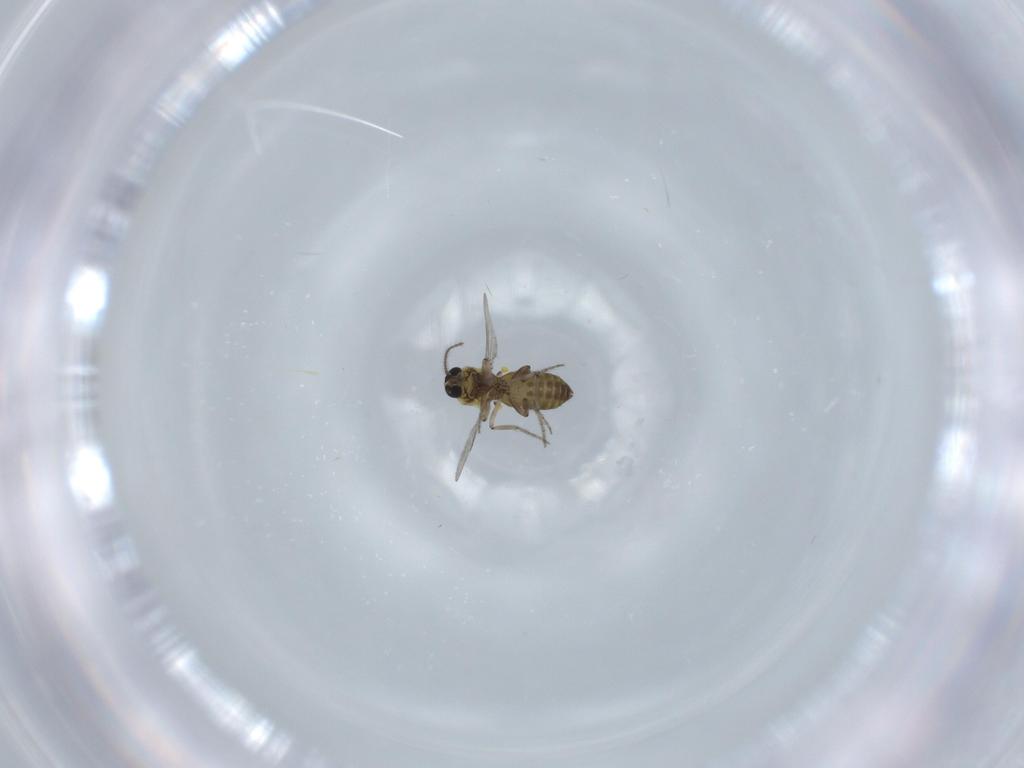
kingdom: Animalia
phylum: Arthropoda
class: Insecta
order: Diptera
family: Ceratopogonidae
